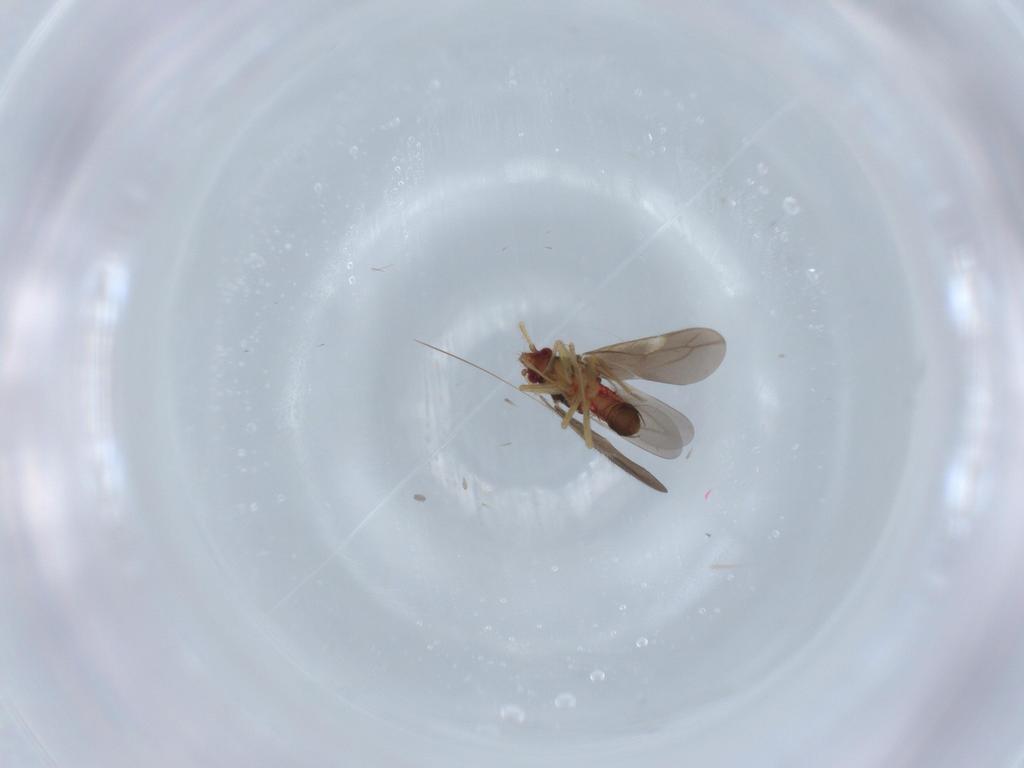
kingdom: Animalia
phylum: Arthropoda
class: Insecta
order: Hemiptera
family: Ceratocombidae
